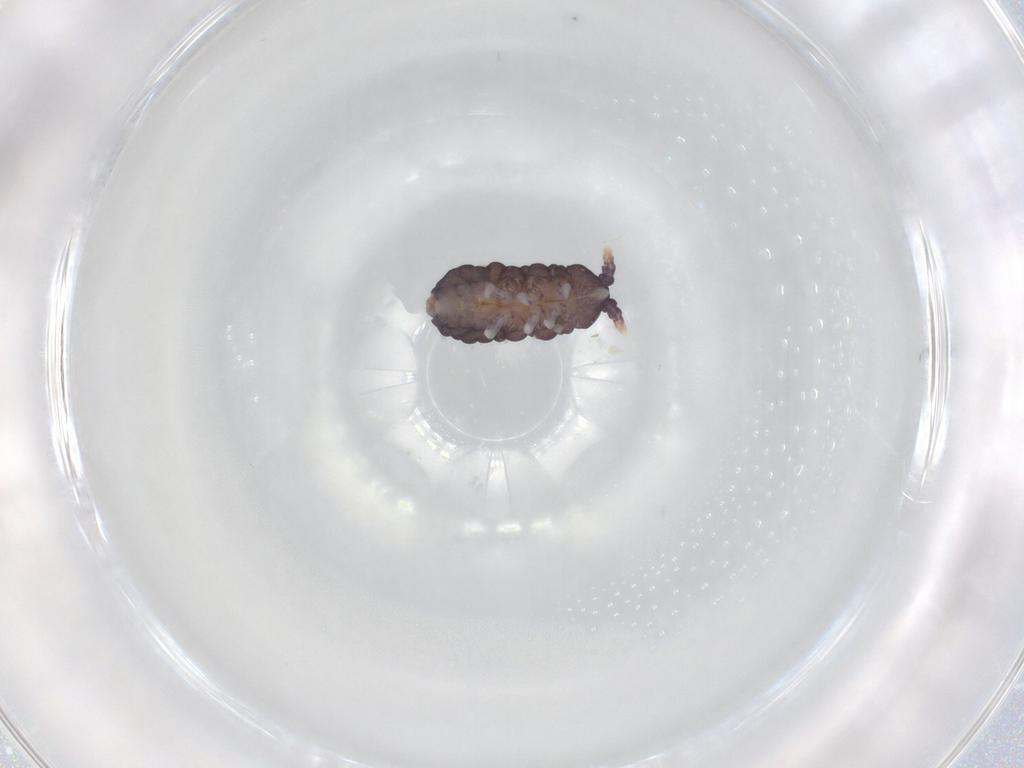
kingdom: Animalia
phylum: Arthropoda
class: Collembola
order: Poduromorpha
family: Neanuridae
